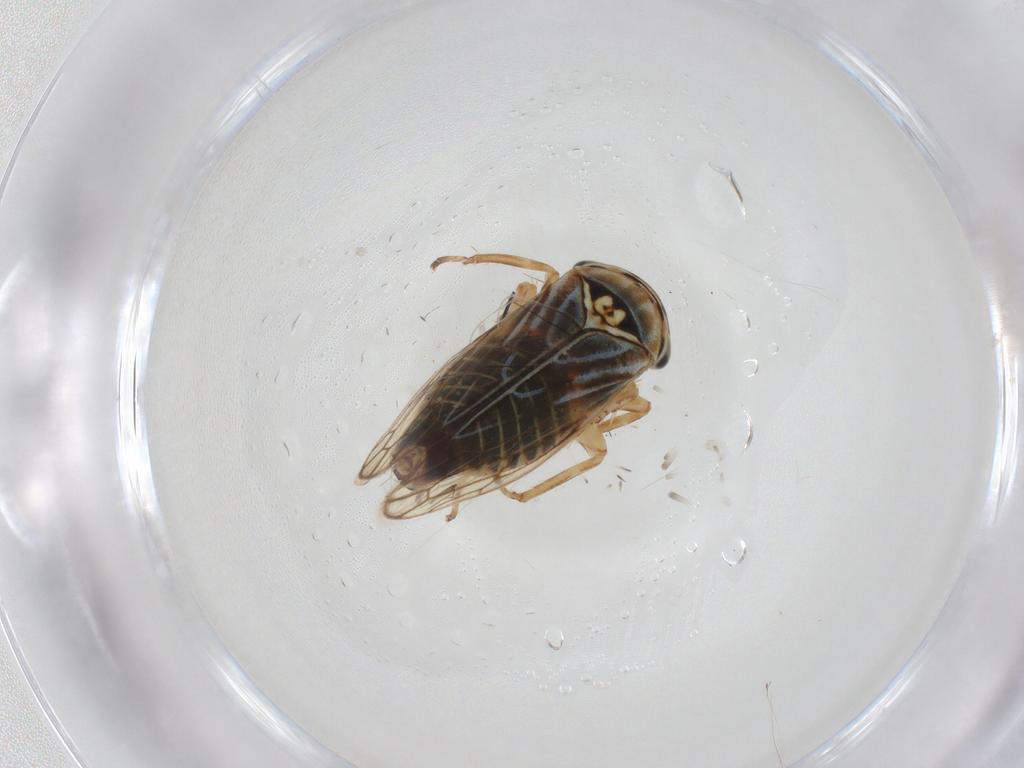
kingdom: Animalia
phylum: Arthropoda
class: Insecta
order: Hemiptera
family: Cicadellidae
